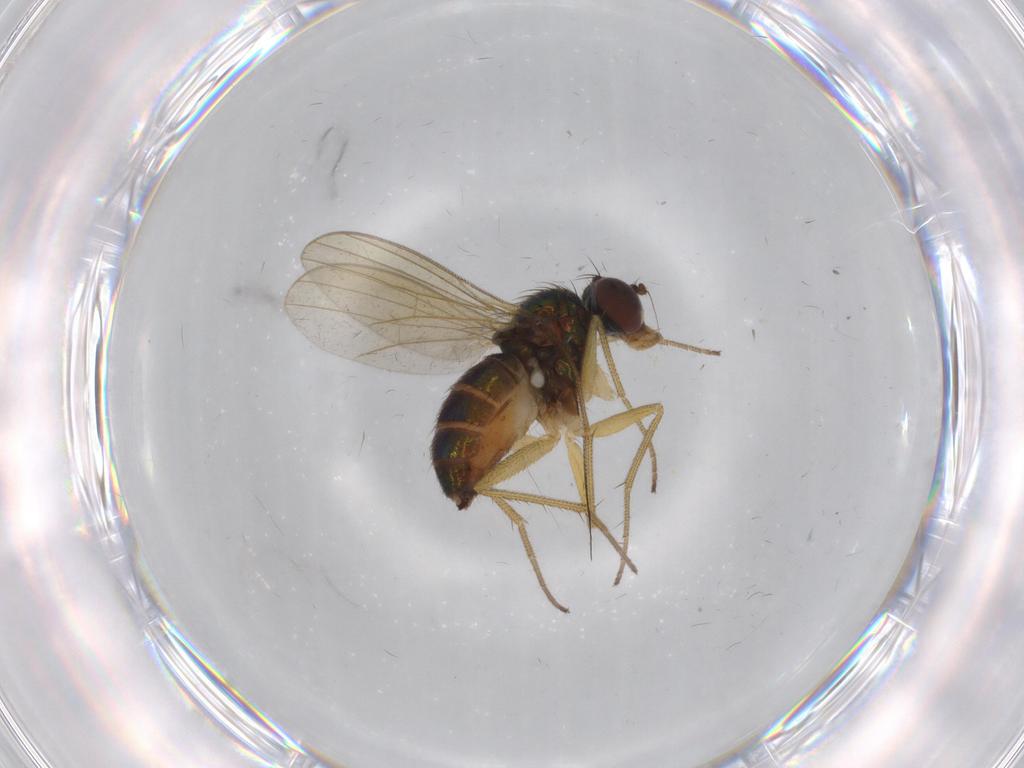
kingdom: Animalia
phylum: Arthropoda
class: Insecta
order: Diptera
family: Dolichopodidae
